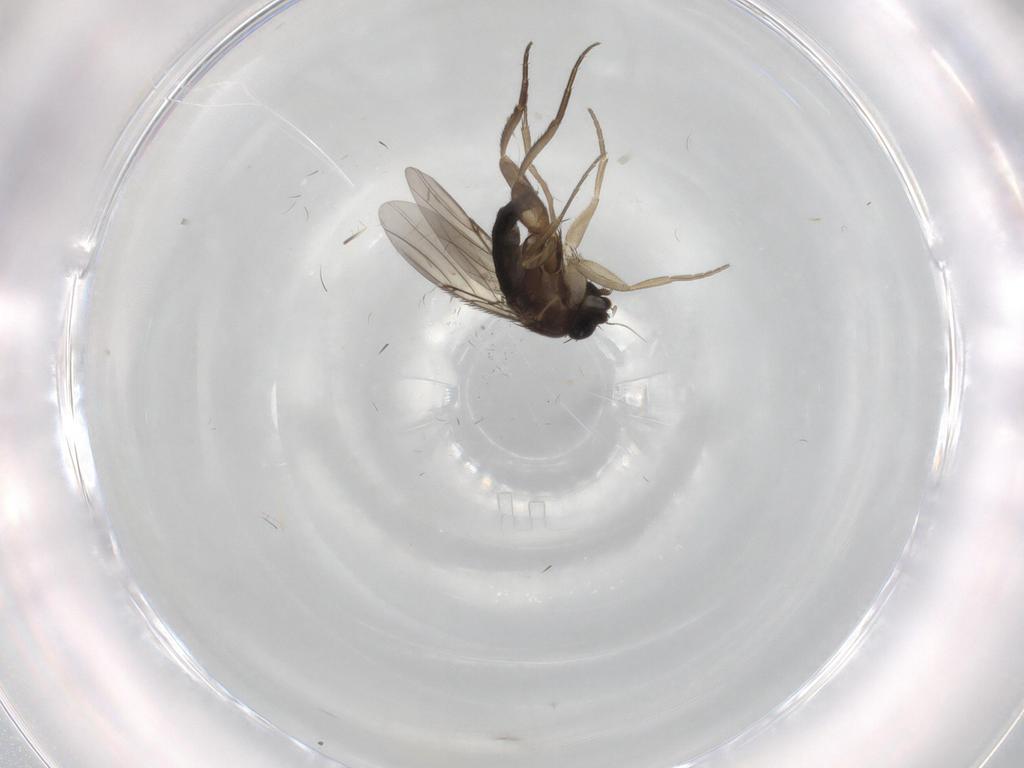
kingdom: Animalia
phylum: Arthropoda
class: Insecta
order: Diptera
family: Phoridae
